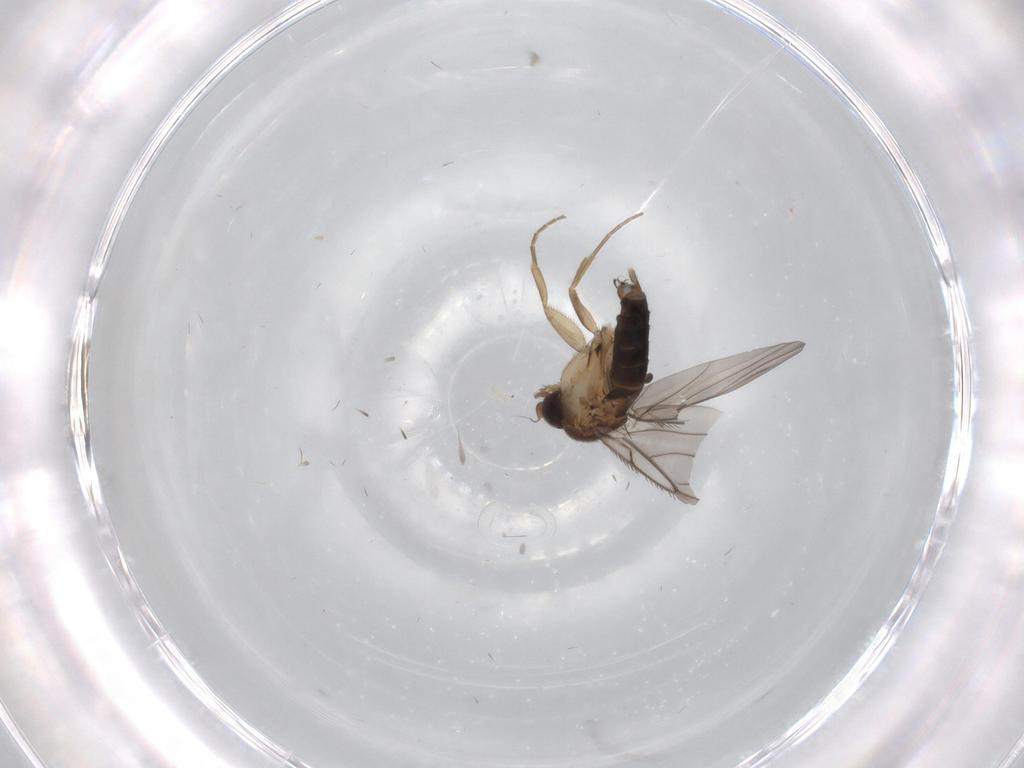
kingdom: Animalia
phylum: Arthropoda
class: Insecta
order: Diptera
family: Phoridae
